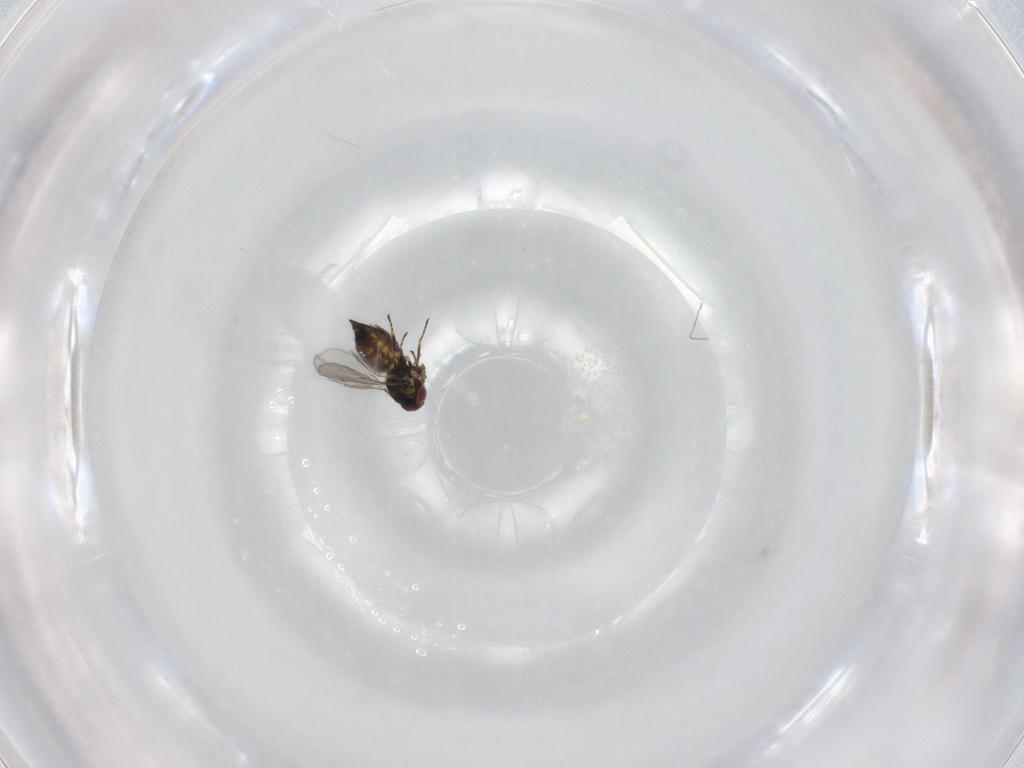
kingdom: Animalia
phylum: Arthropoda
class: Insecta
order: Hymenoptera
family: Eulophidae
